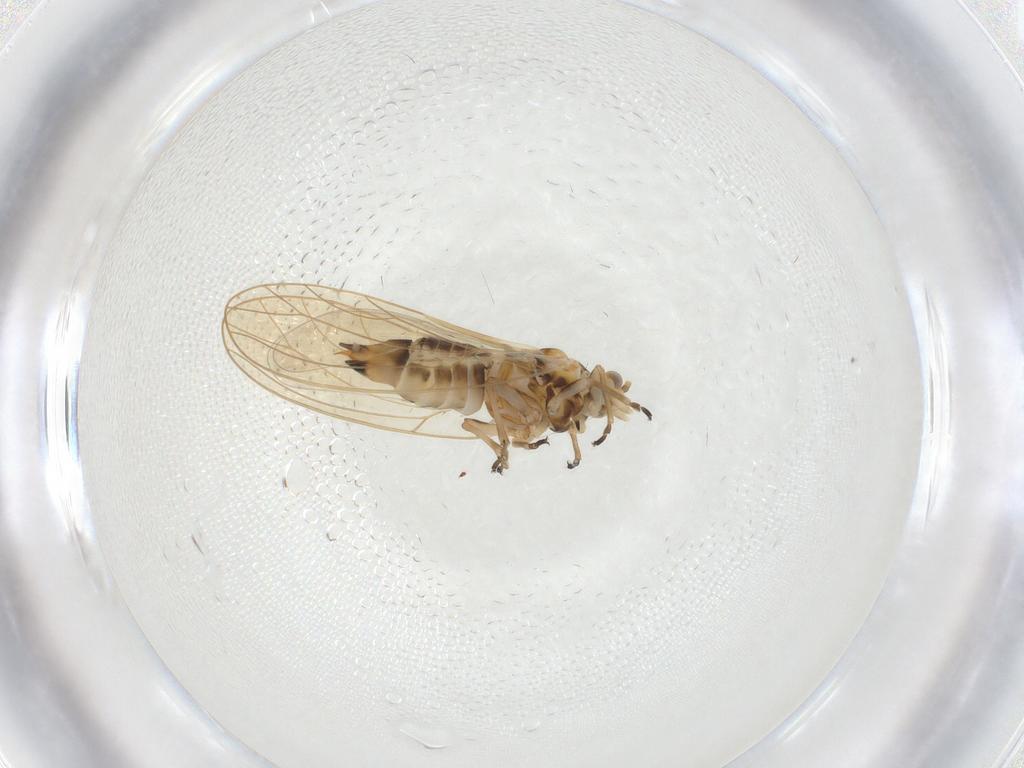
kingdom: Animalia
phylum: Arthropoda
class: Insecta
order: Hemiptera
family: Triozidae
